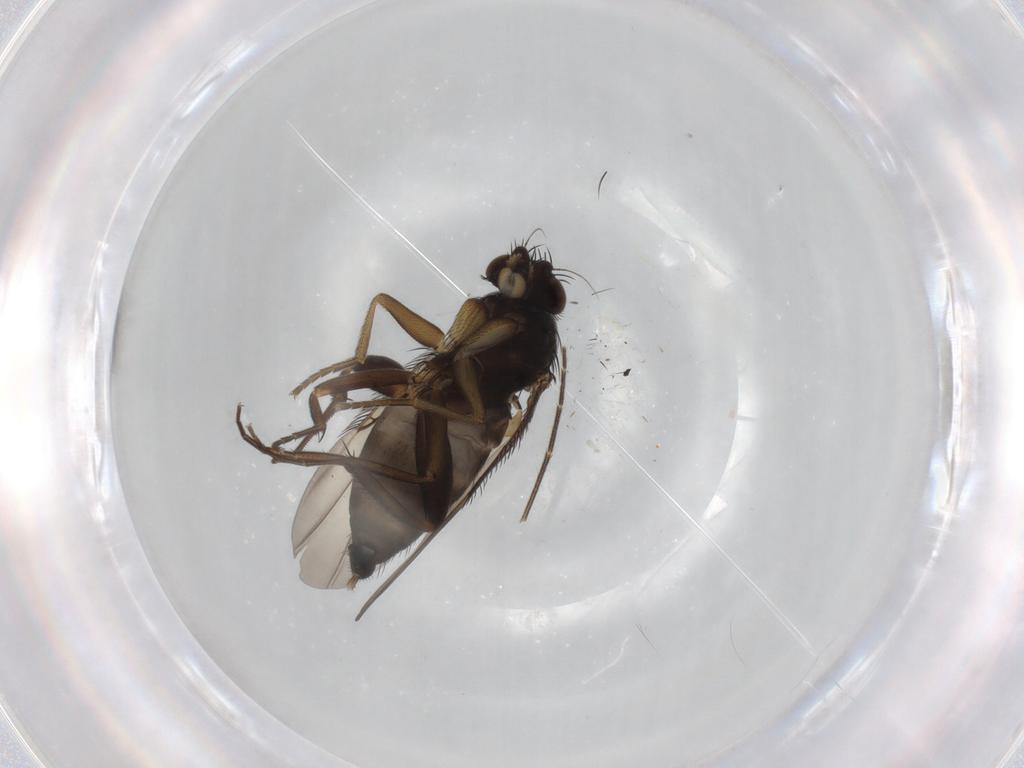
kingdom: Animalia
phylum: Arthropoda
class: Insecta
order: Diptera
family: Phoridae
